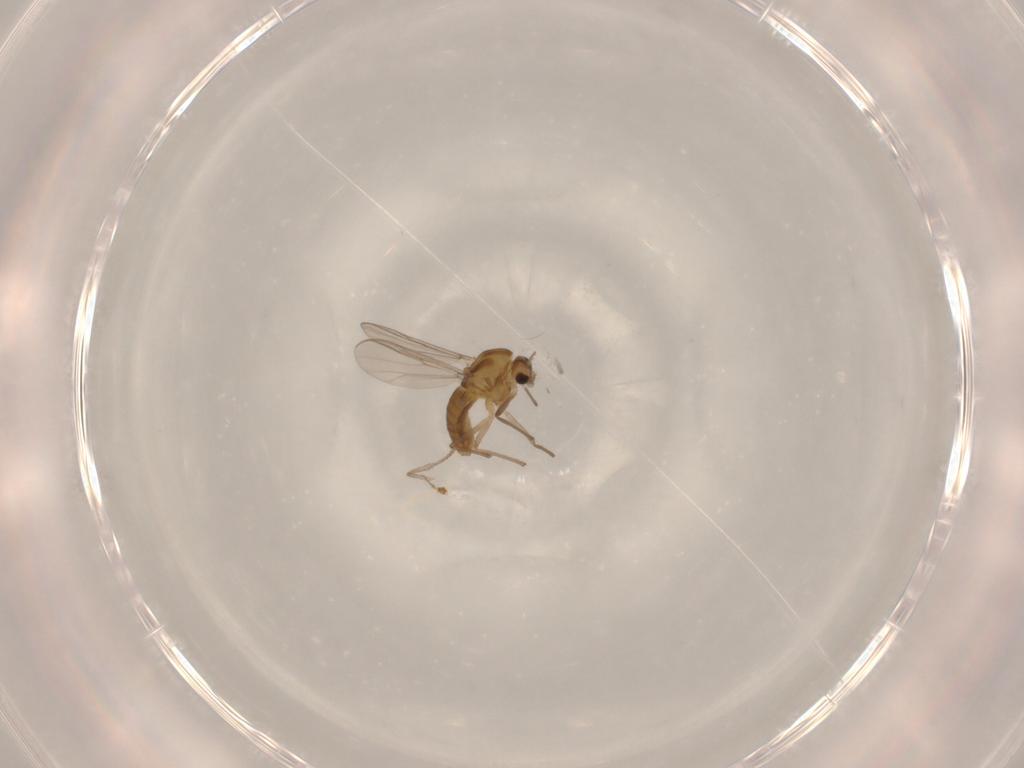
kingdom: Animalia
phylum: Arthropoda
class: Insecta
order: Diptera
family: Chironomidae
